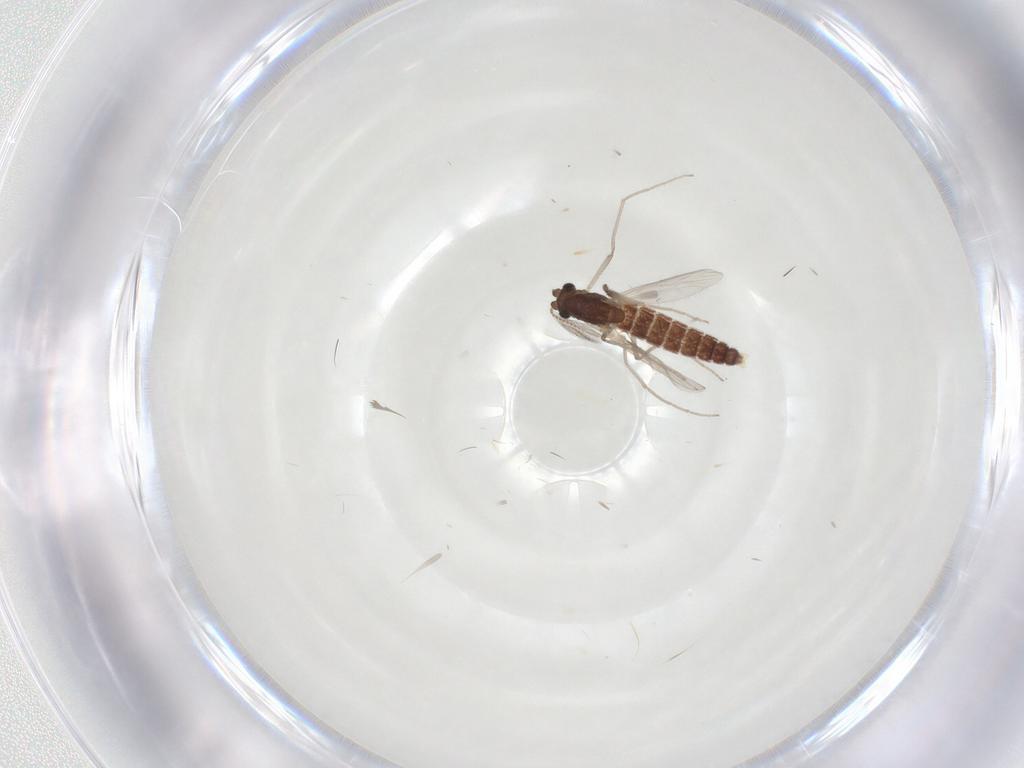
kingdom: Animalia
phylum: Arthropoda
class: Insecta
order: Diptera
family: Chironomidae
